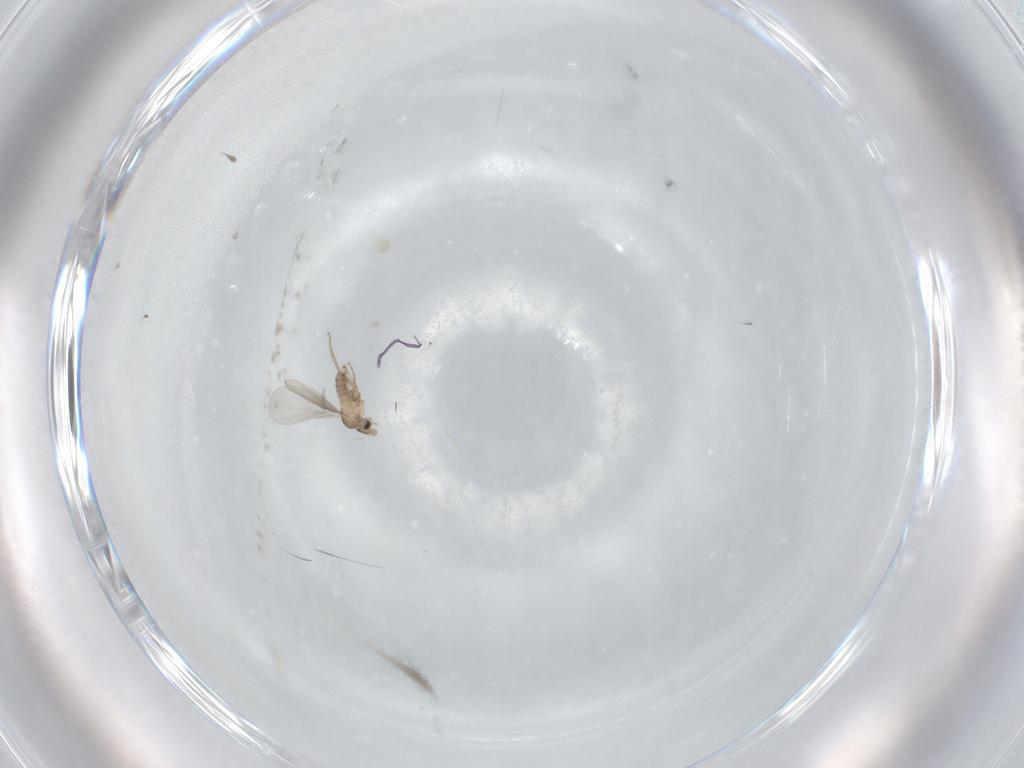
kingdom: Animalia
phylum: Arthropoda
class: Insecta
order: Diptera
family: Phoridae
